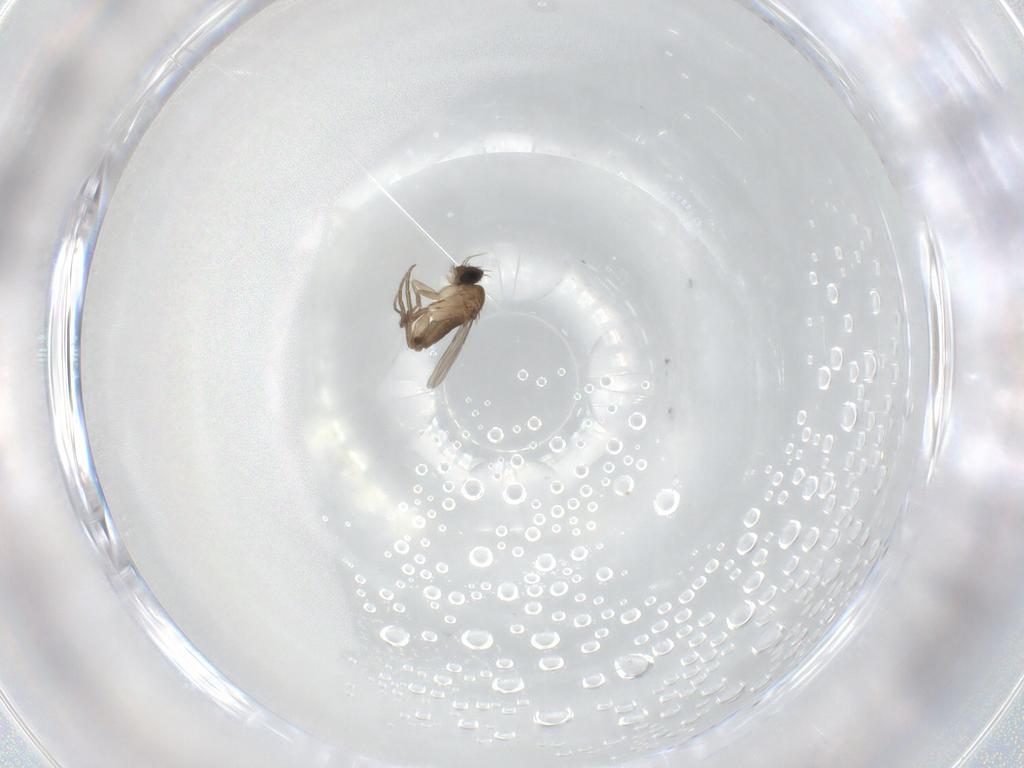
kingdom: Animalia
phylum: Arthropoda
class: Insecta
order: Diptera
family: Phoridae
